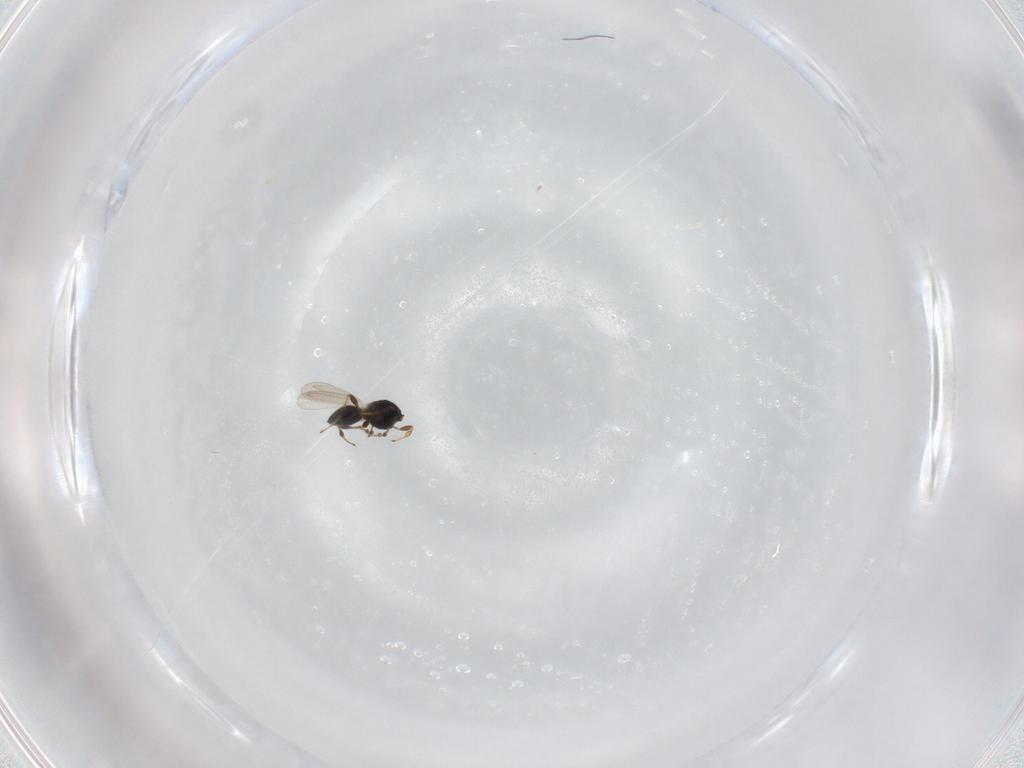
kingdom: Animalia
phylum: Arthropoda
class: Insecta
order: Hymenoptera
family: Platygastridae
